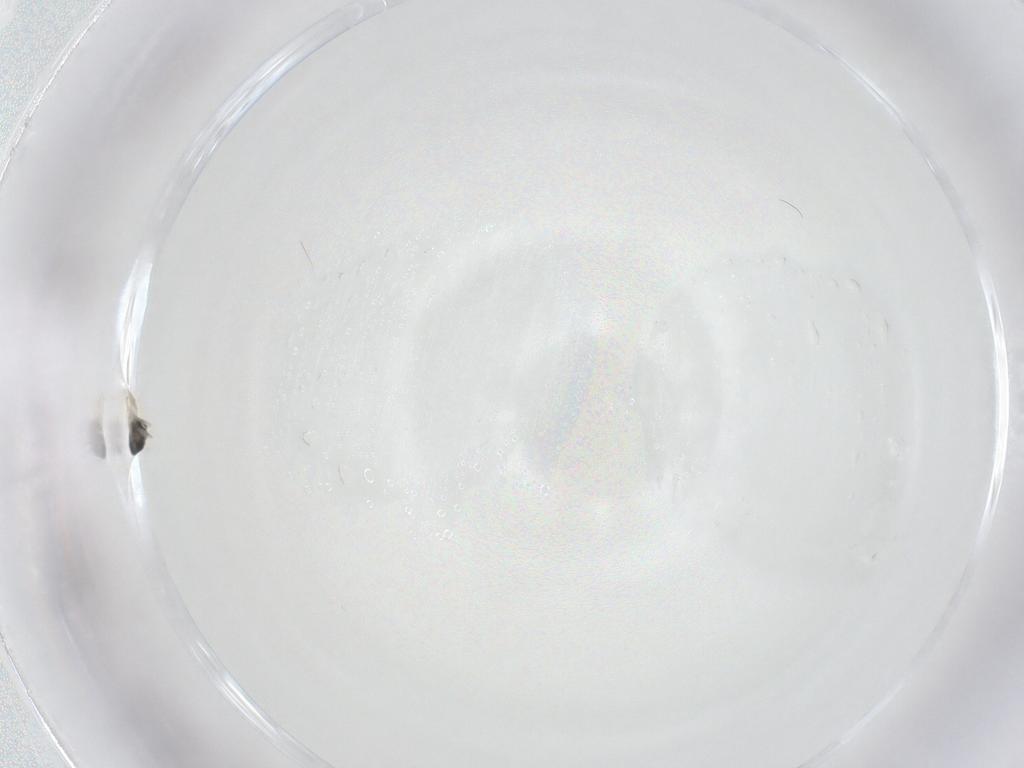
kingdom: Animalia
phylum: Arthropoda
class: Insecta
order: Hymenoptera
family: Eulophidae
